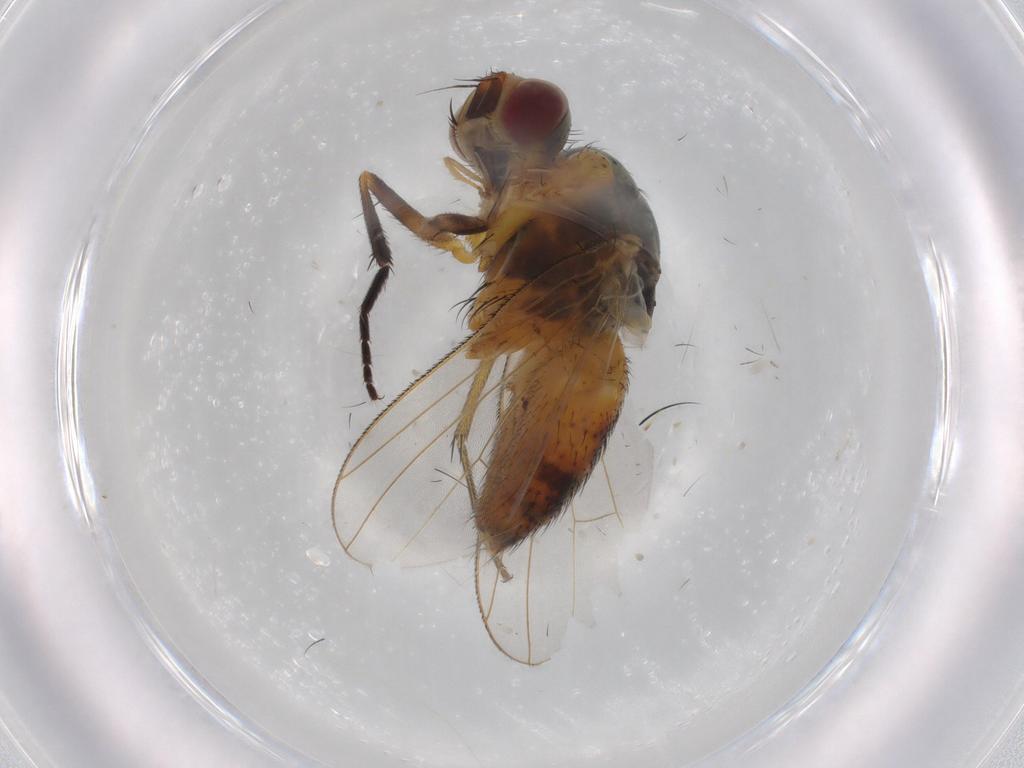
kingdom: Animalia
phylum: Arthropoda
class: Insecta
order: Diptera
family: Muscidae
